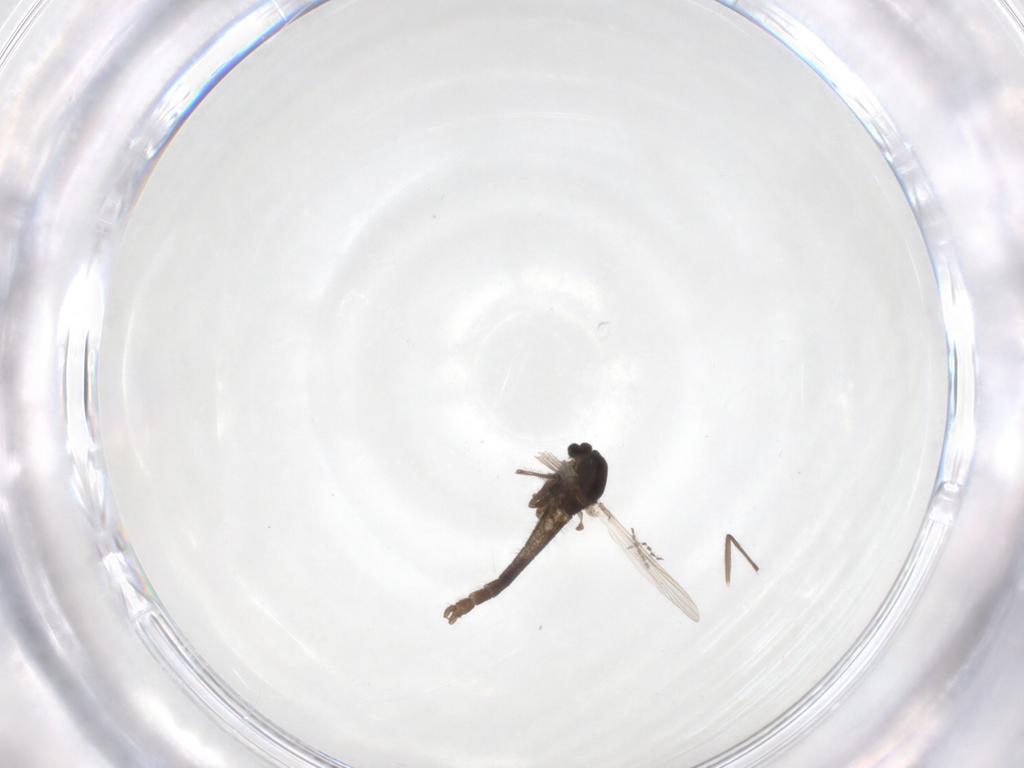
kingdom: Animalia
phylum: Arthropoda
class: Insecta
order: Diptera
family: Chironomidae
